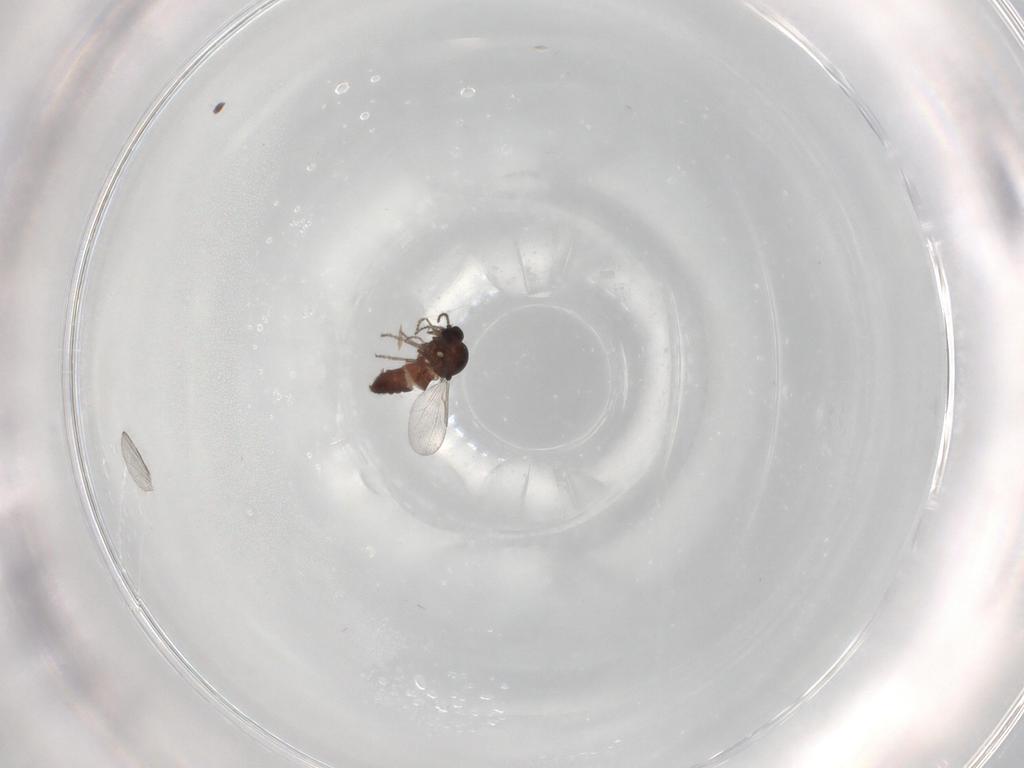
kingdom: Animalia
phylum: Arthropoda
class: Insecta
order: Diptera
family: Ceratopogonidae
